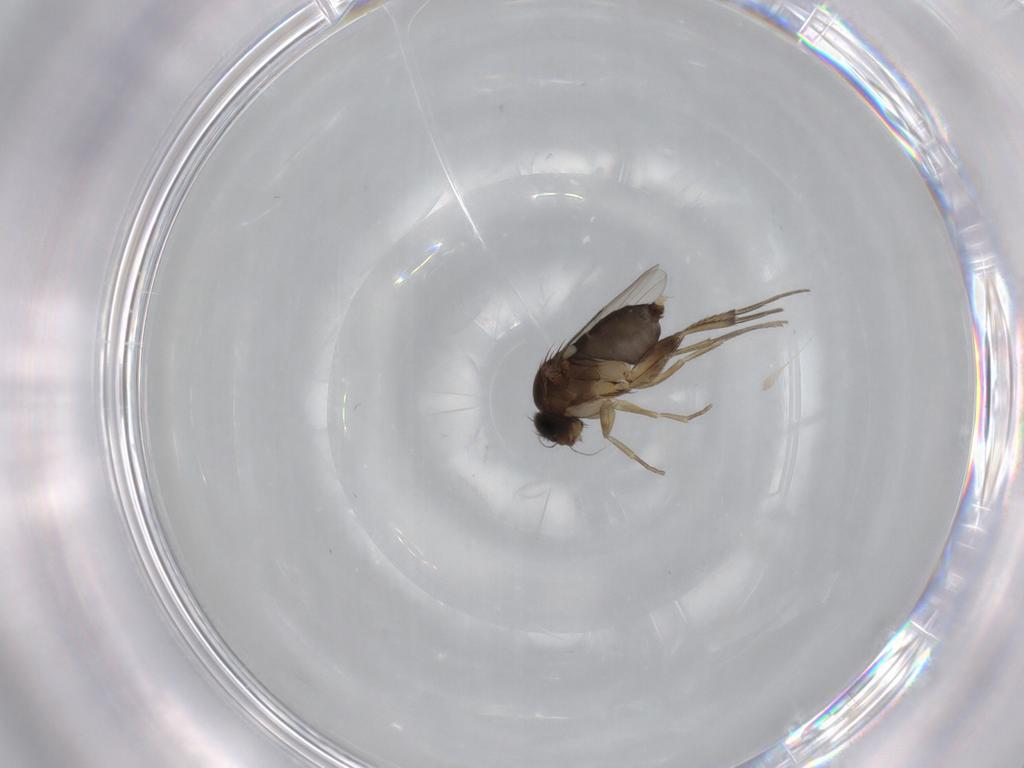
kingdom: Animalia
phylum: Arthropoda
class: Insecta
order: Diptera
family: Phoridae
